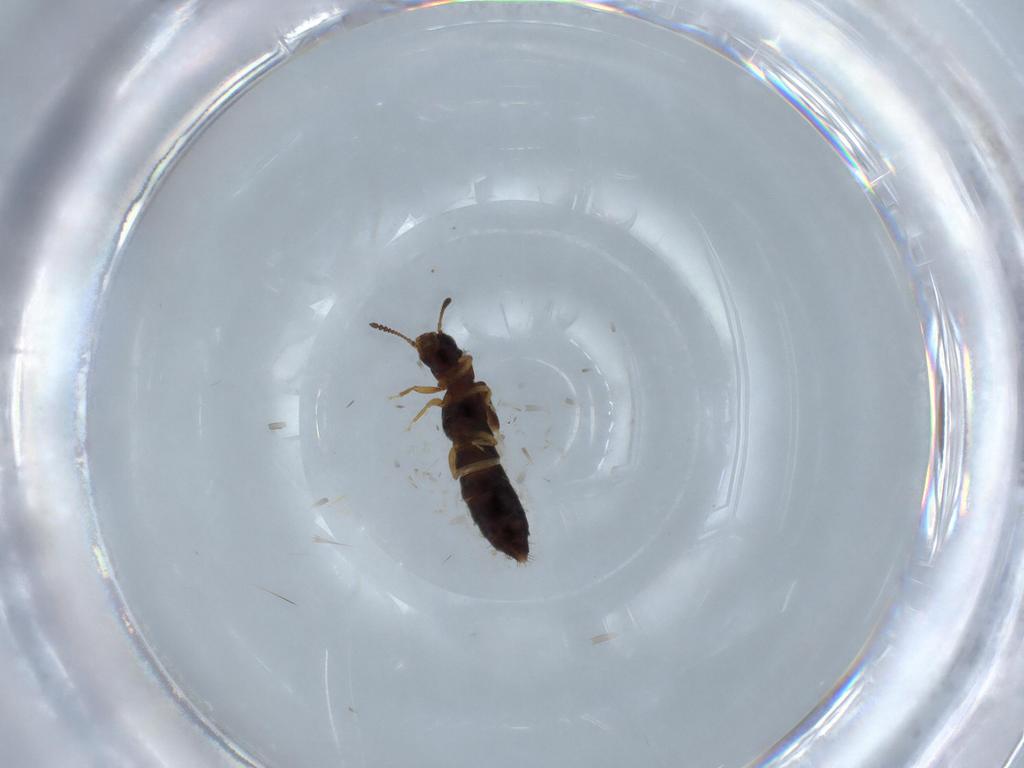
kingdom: Animalia
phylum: Arthropoda
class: Insecta
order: Coleoptera
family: Staphylinidae
